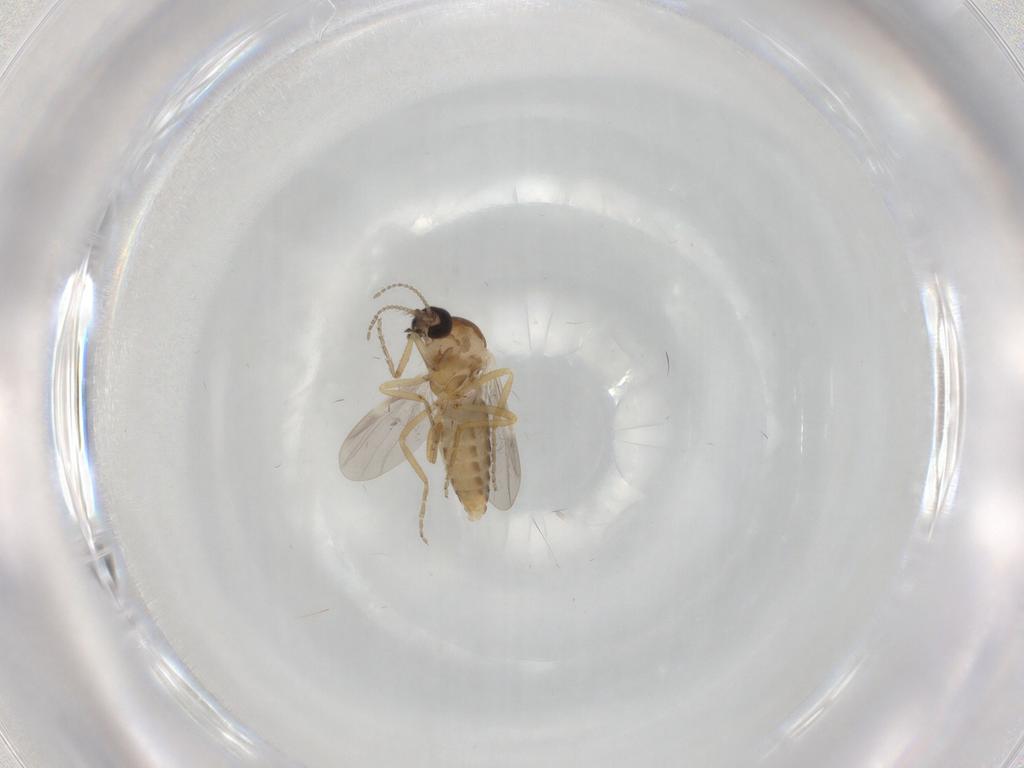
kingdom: Animalia
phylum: Arthropoda
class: Insecta
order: Diptera
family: Ceratopogonidae
